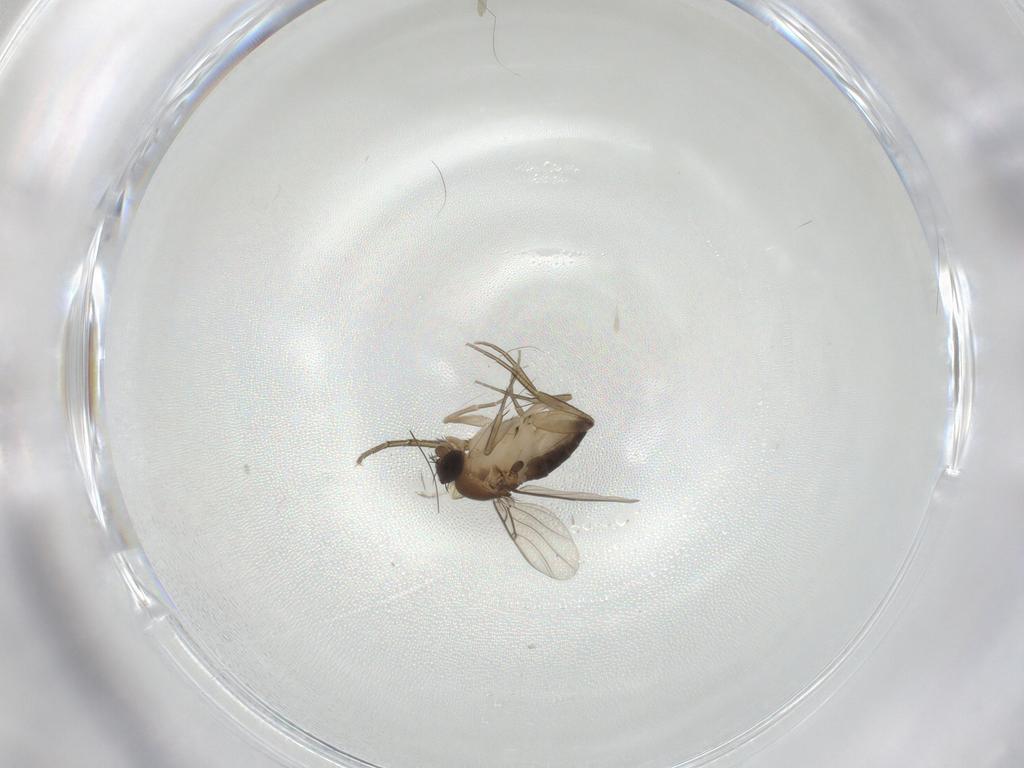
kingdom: Animalia
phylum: Arthropoda
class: Insecta
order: Diptera
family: Phoridae
